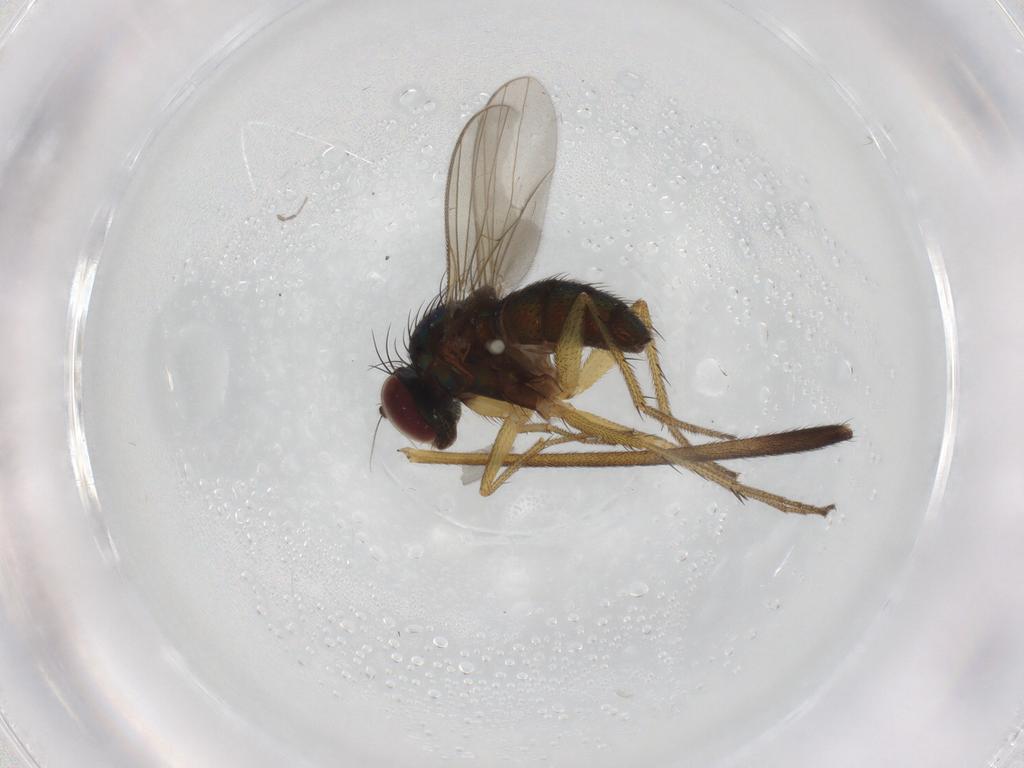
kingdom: Animalia
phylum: Arthropoda
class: Insecta
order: Diptera
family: Limoniidae
